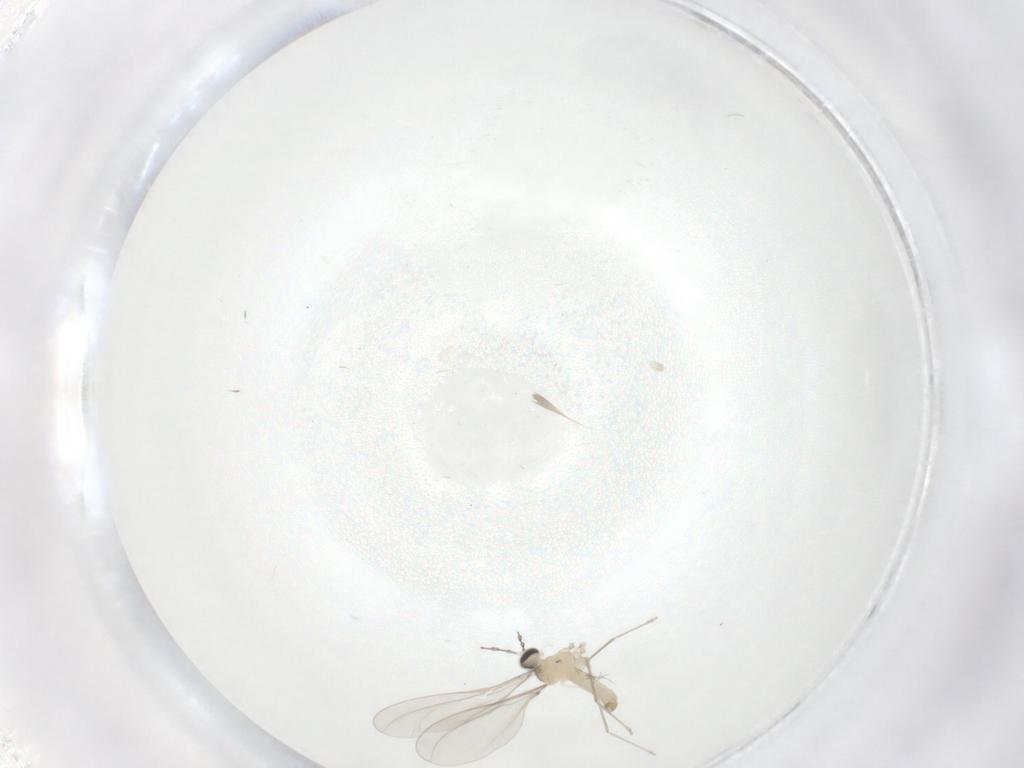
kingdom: Animalia
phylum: Arthropoda
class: Insecta
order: Diptera
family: Cecidomyiidae
